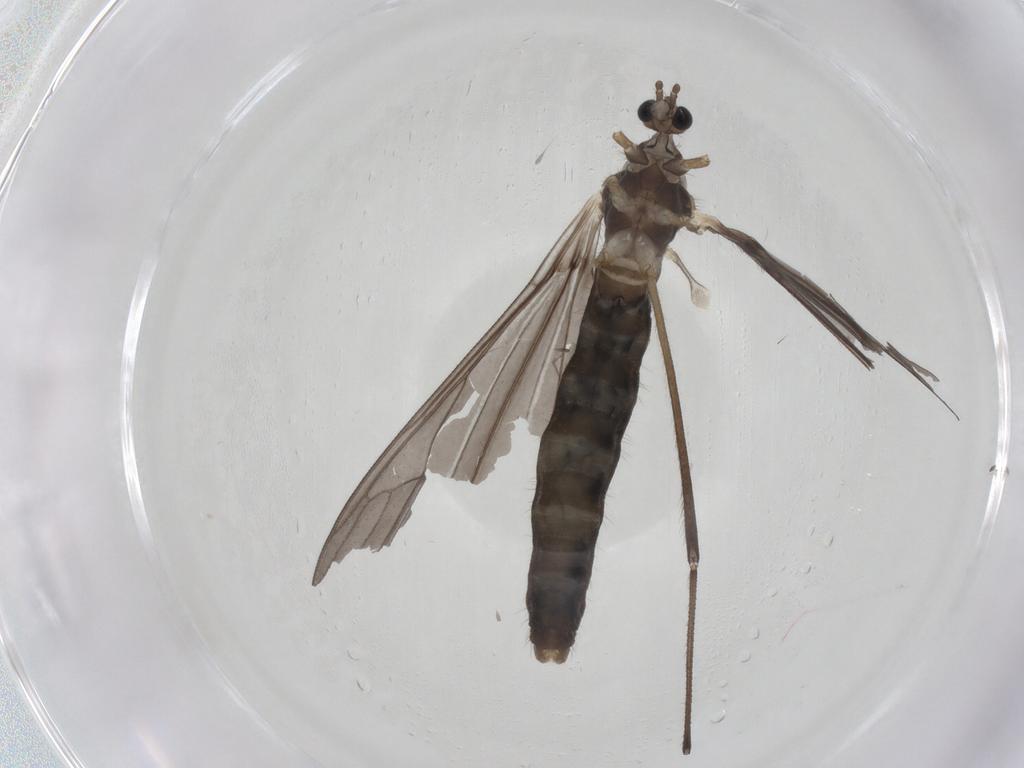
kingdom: Animalia
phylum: Arthropoda
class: Insecta
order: Diptera
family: Limoniidae
